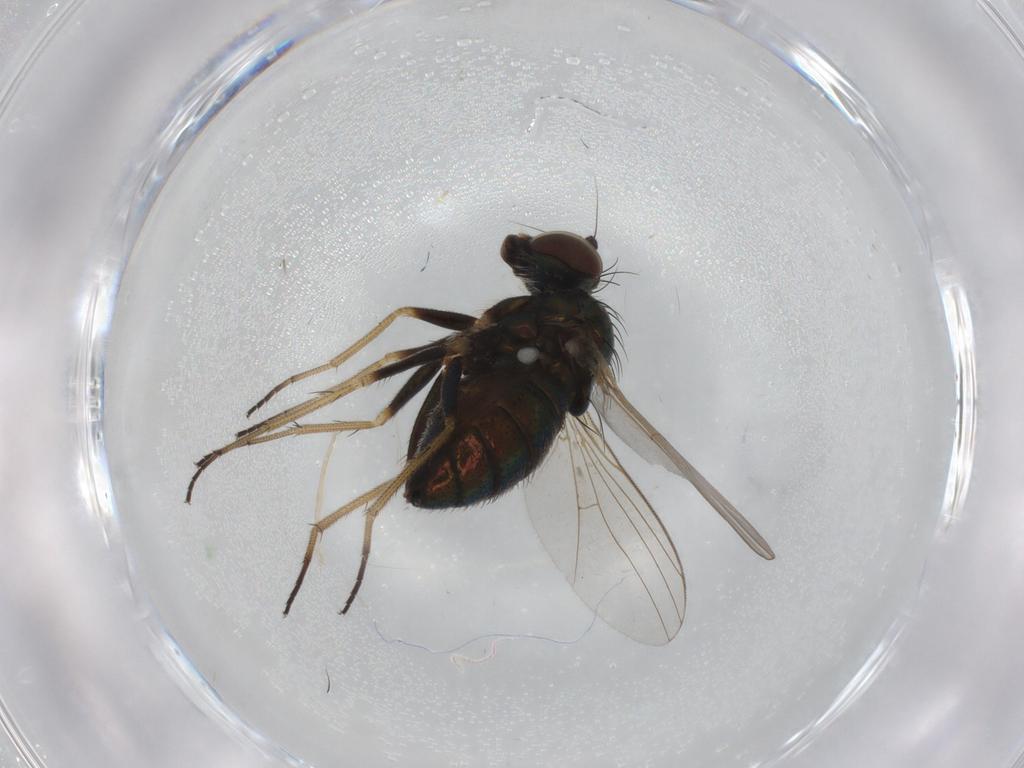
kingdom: Animalia
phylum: Arthropoda
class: Insecta
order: Diptera
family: Drosophilidae
